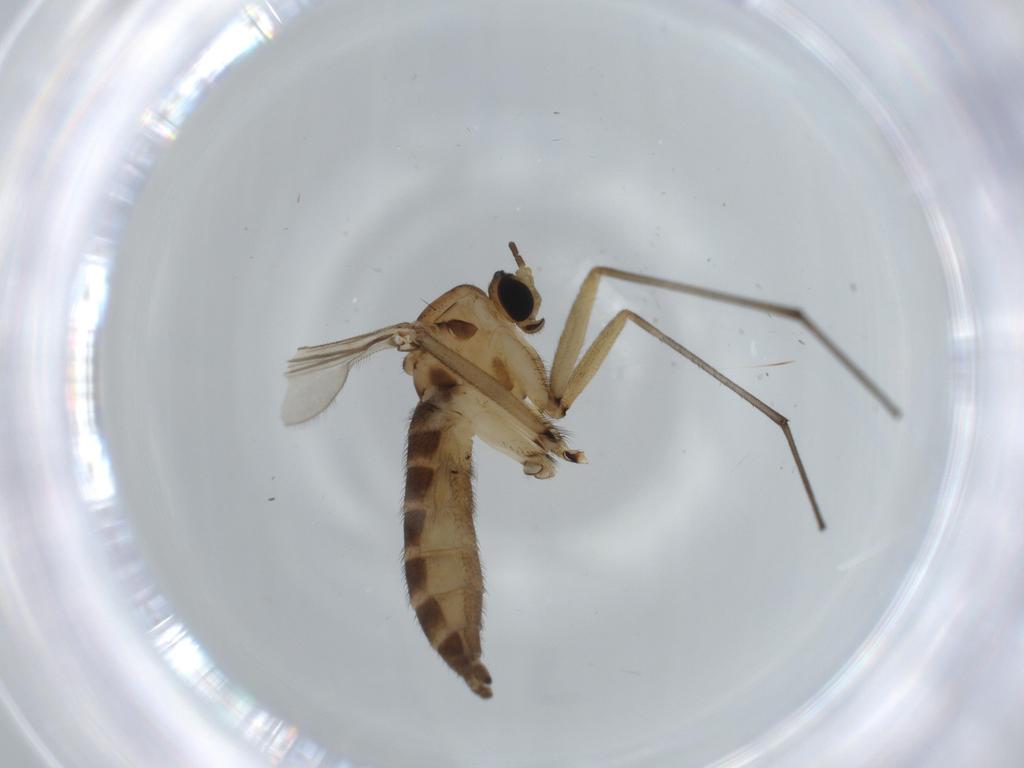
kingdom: Animalia
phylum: Arthropoda
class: Insecta
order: Diptera
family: Sciaridae
